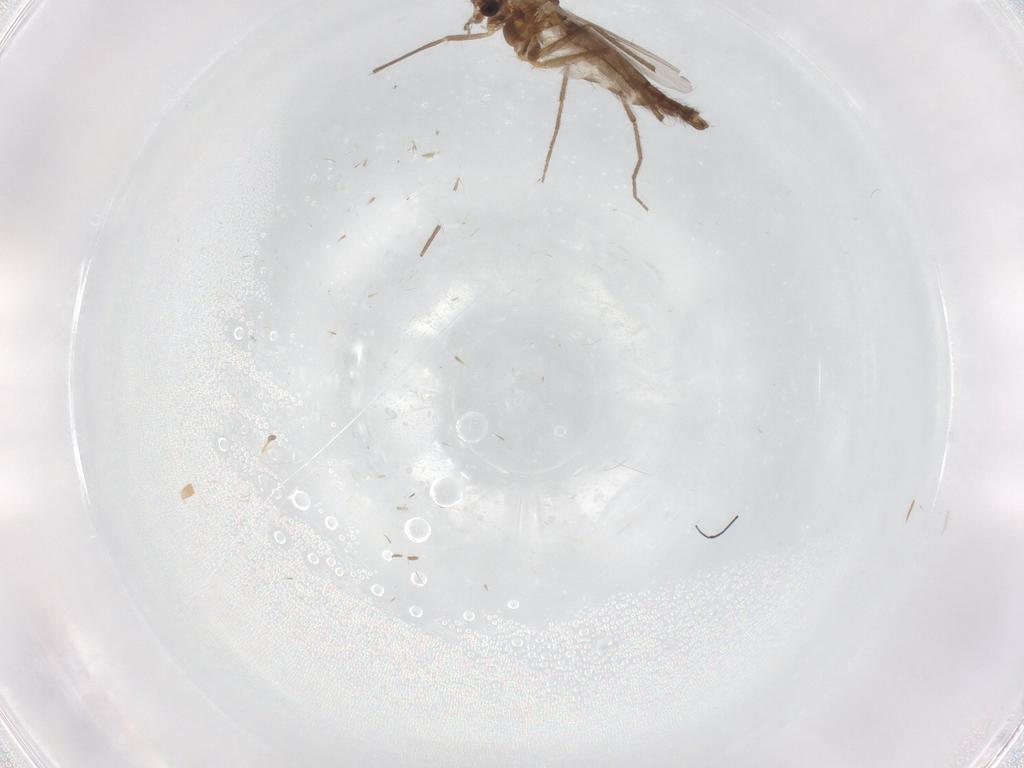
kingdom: Animalia
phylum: Arthropoda
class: Insecta
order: Diptera
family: Chironomidae
